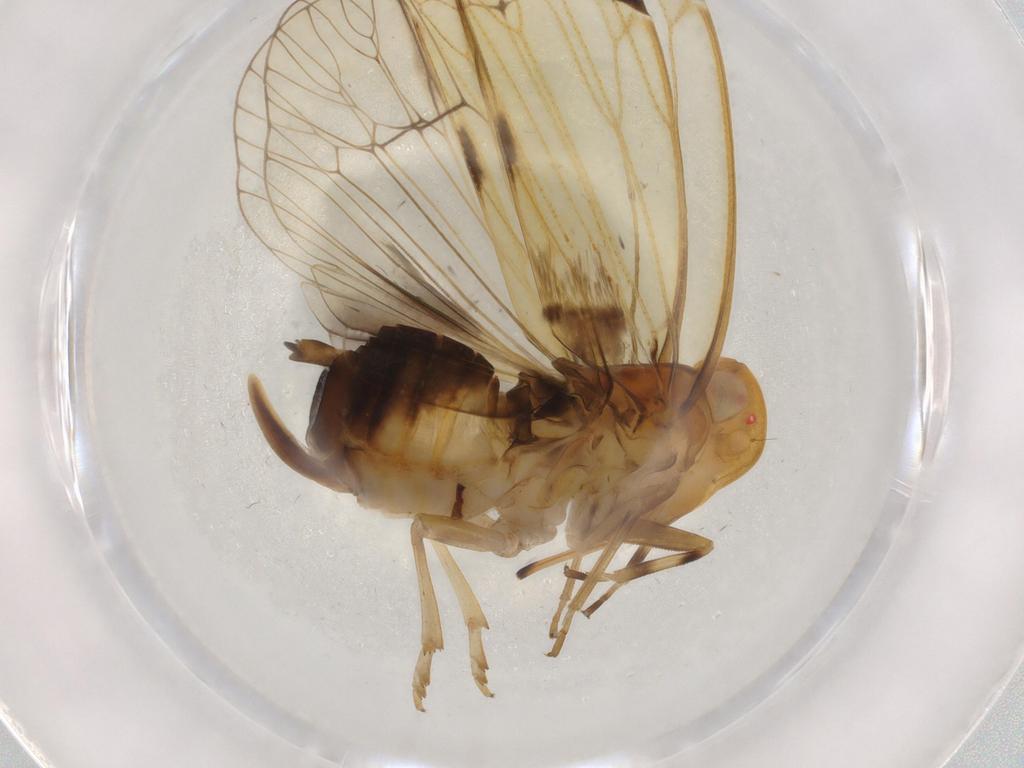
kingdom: Animalia
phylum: Arthropoda
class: Insecta
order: Hemiptera
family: Cixiidae
